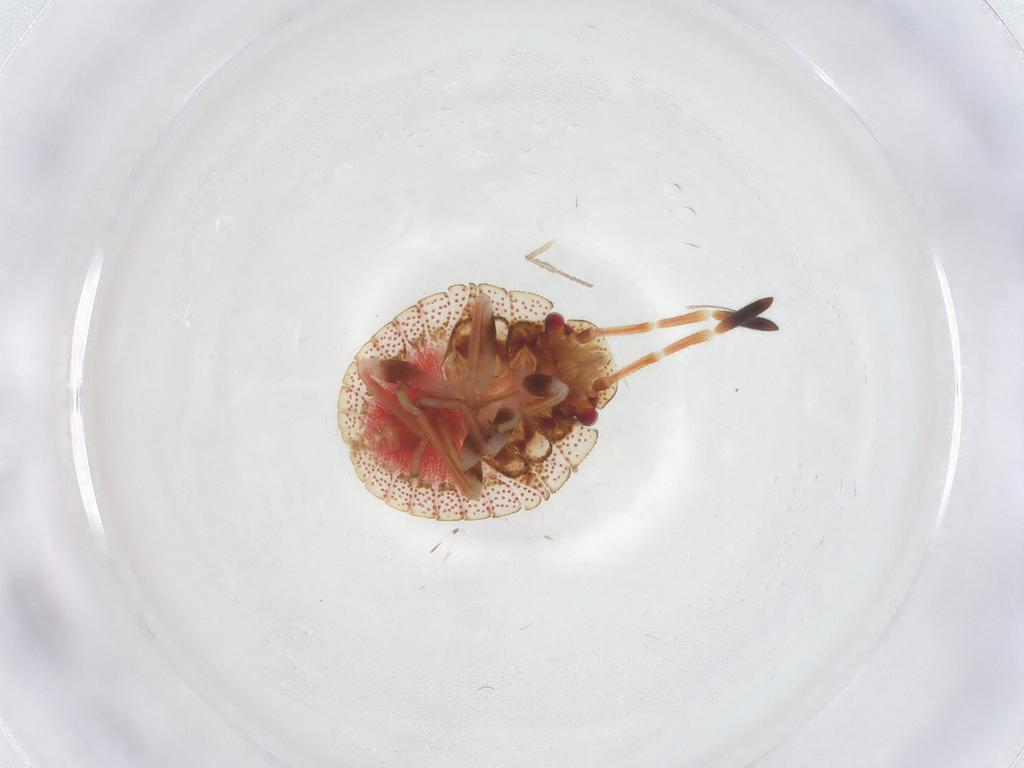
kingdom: Animalia
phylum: Arthropoda
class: Insecta
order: Hemiptera
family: Pentatomidae
